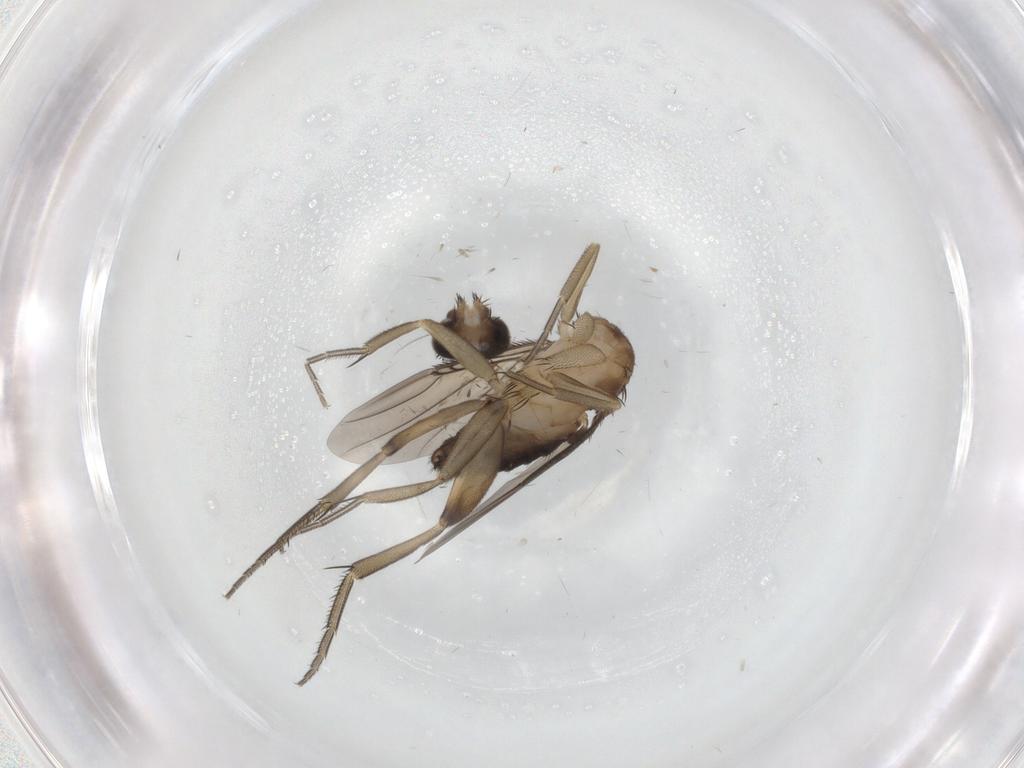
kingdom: Animalia
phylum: Arthropoda
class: Insecta
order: Diptera
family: Phoridae
